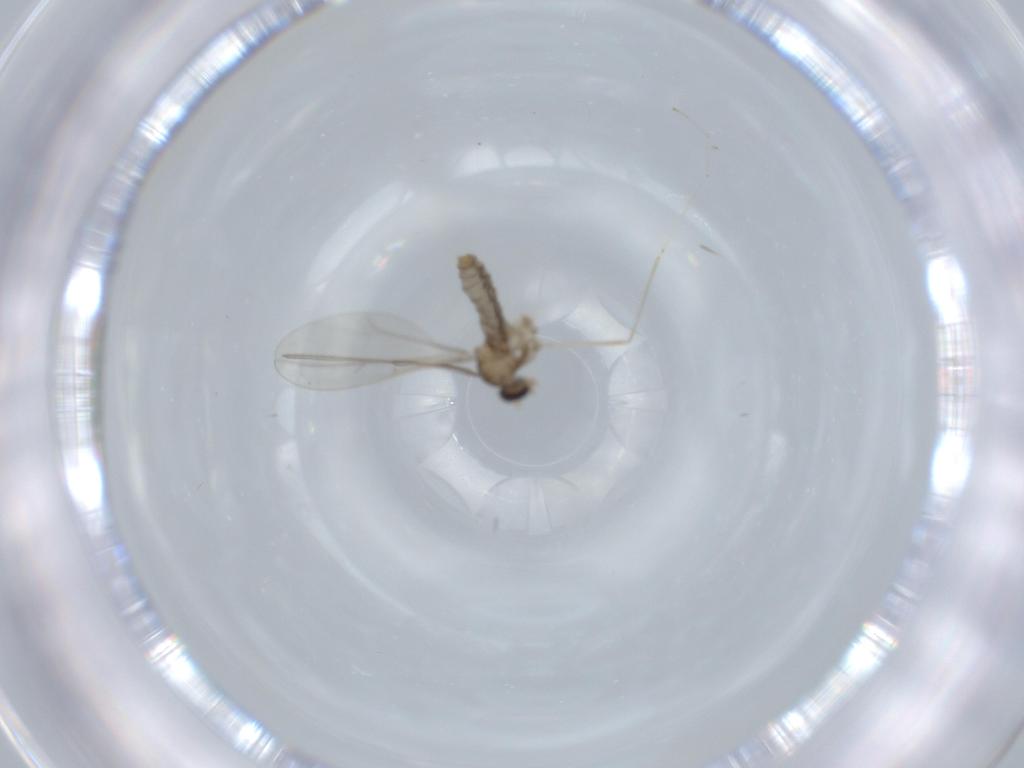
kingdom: Animalia
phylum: Arthropoda
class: Insecta
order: Diptera
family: Cecidomyiidae
